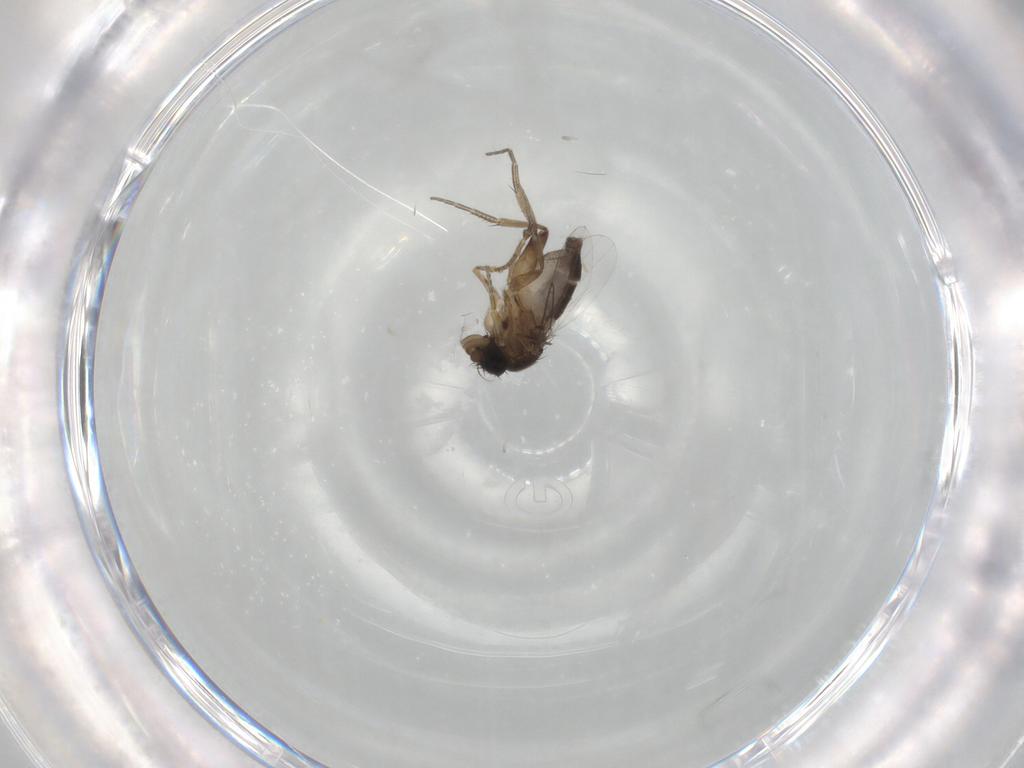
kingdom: Animalia
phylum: Arthropoda
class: Insecta
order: Diptera
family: Phoridae
